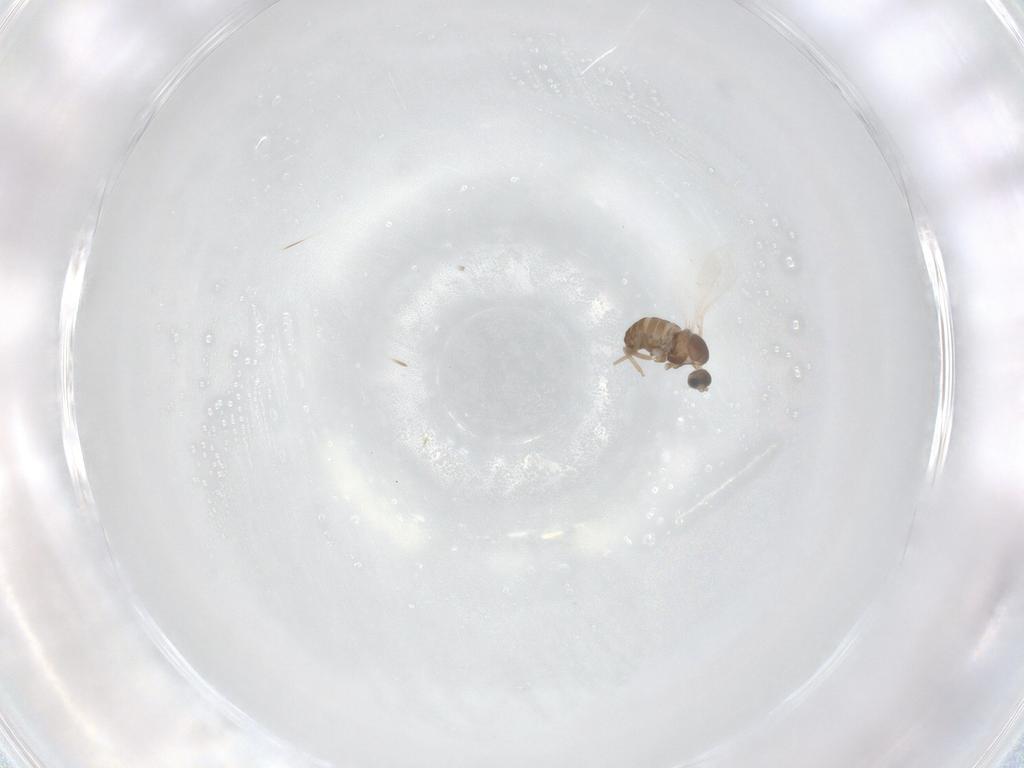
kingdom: Animalia
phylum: Arthropoda
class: Insecta
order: Diptera
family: Cecidomyiidae
